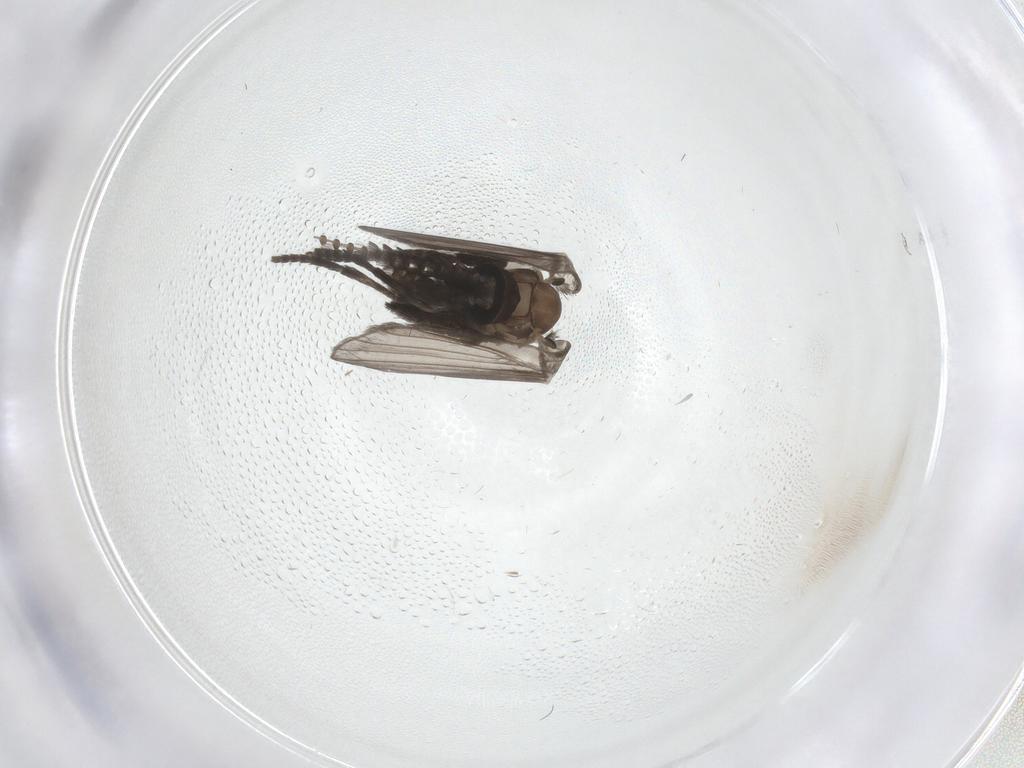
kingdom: Animalia
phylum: Arthropoda
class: Insecta
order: Diptera
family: Psychodidae
